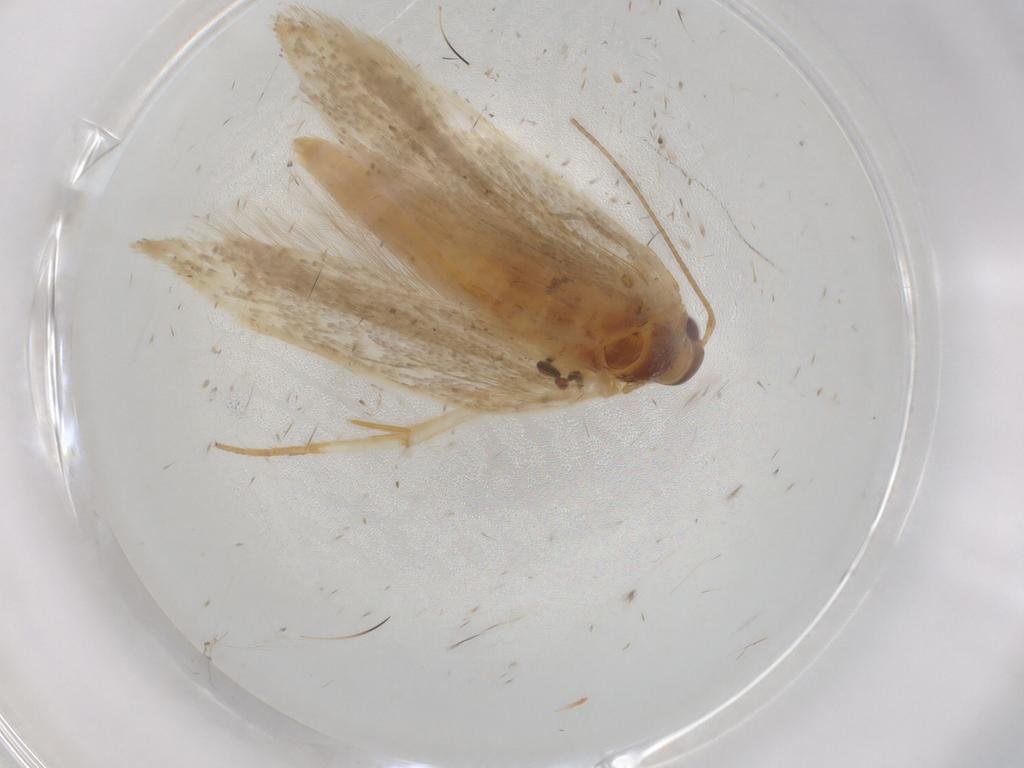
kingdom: Animalia
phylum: Arthropoda
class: Insecta
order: Lepidoptera
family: Gelechiidae
